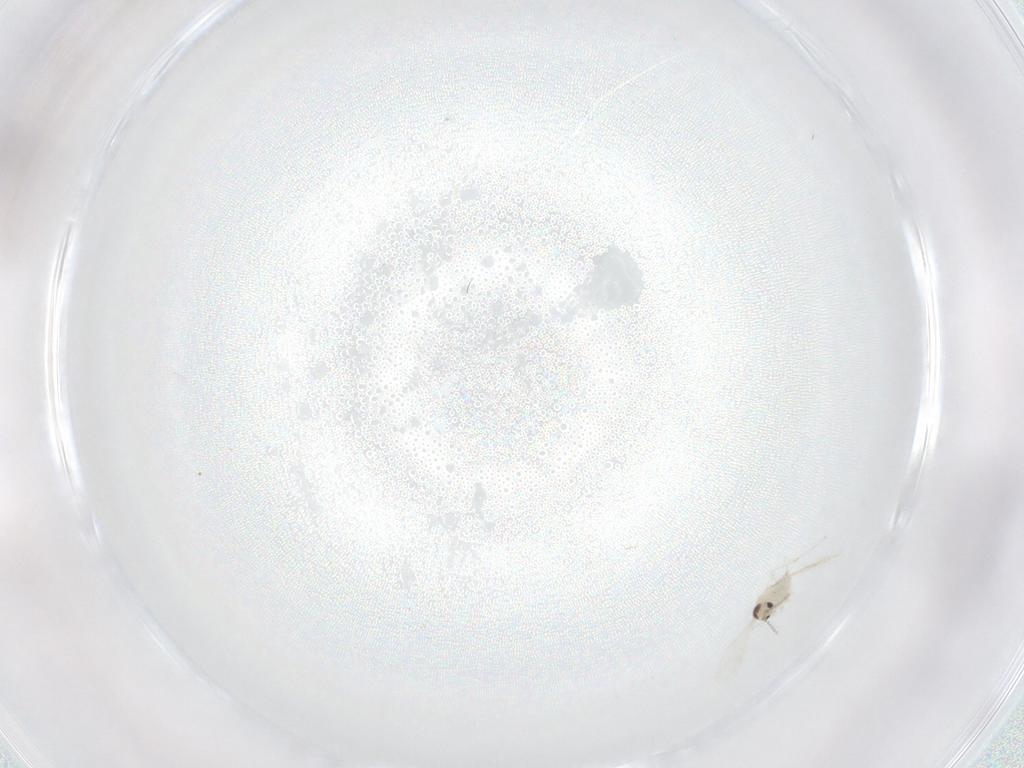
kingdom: Animalia
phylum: Arthropoda
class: Insecta
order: Diptera
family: Cecidomyiidae
